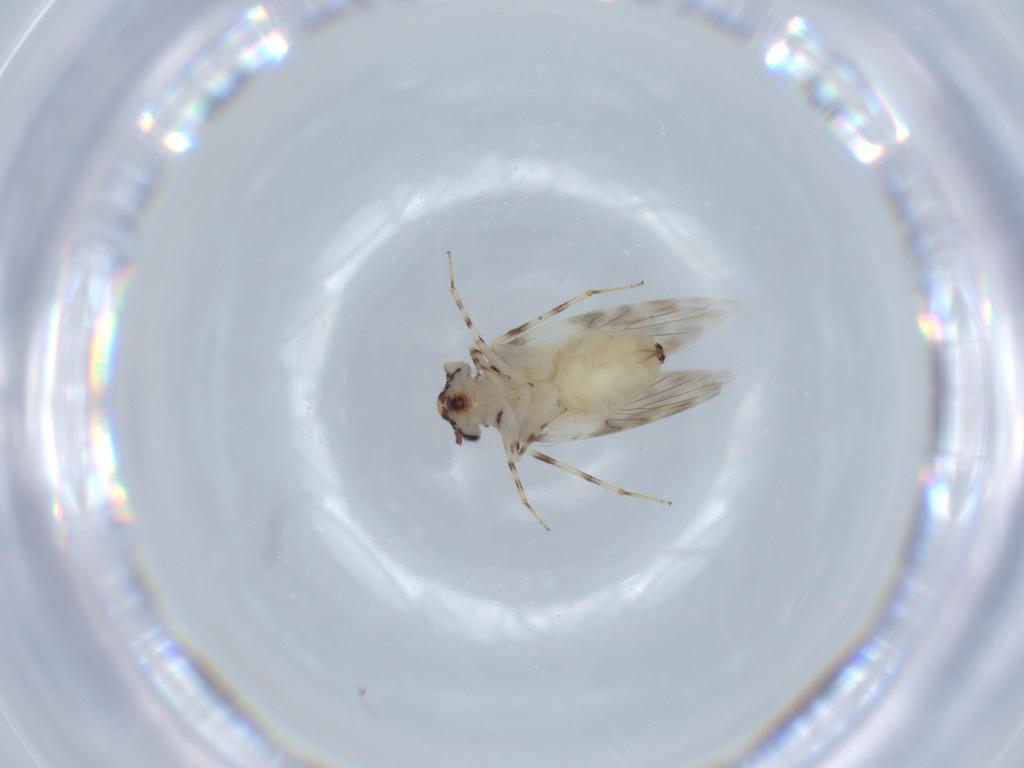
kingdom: Animalia
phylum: Arthropoda
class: Insecta
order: Psocodea
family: Lepidopsocidae
